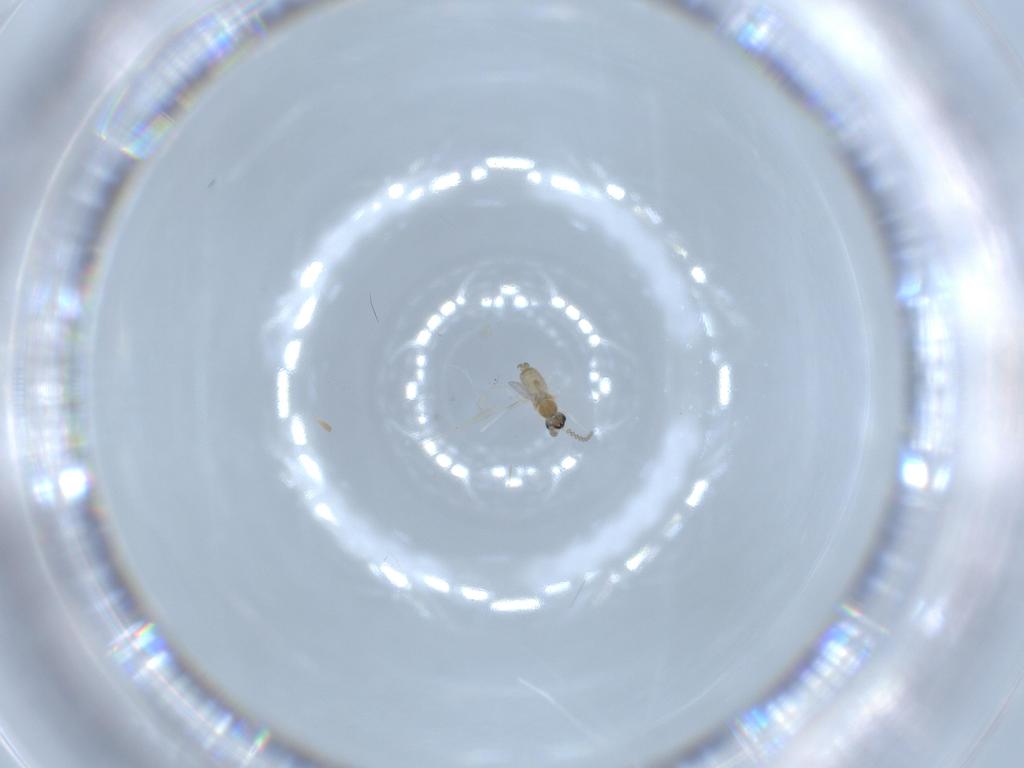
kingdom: Animalia
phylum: Arthropoda
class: Insecta
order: Diptera
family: Cecidomyiidae
